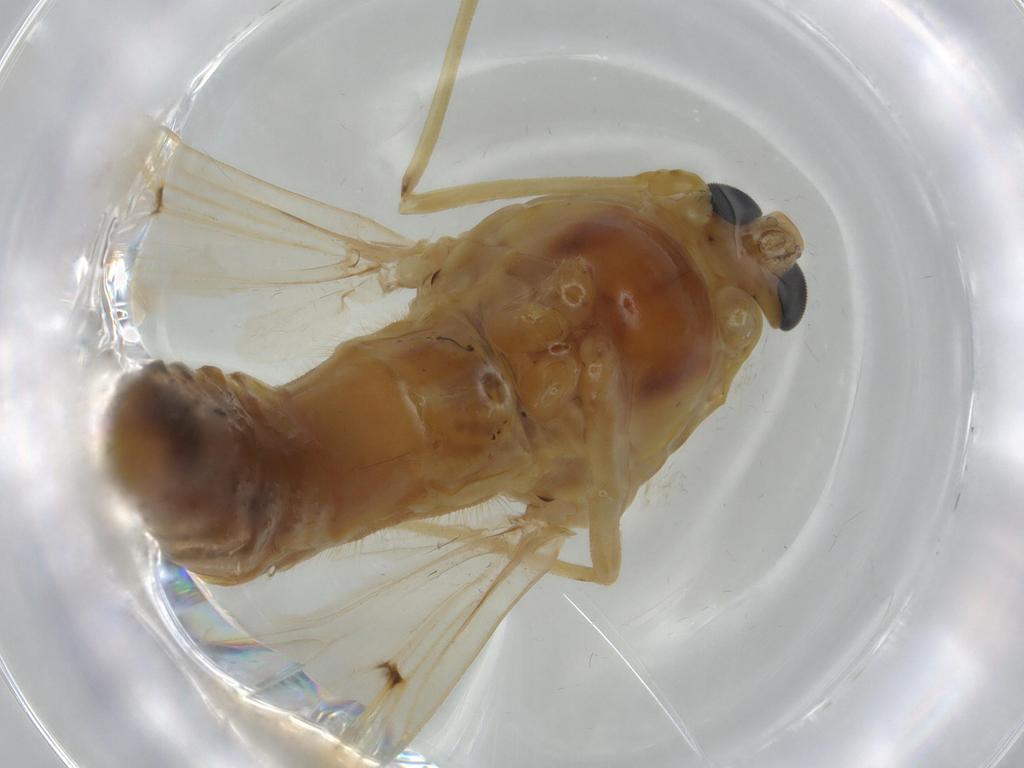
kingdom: Animalia
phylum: Arthropoda
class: Insecta
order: Diptera
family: Chironomidae
